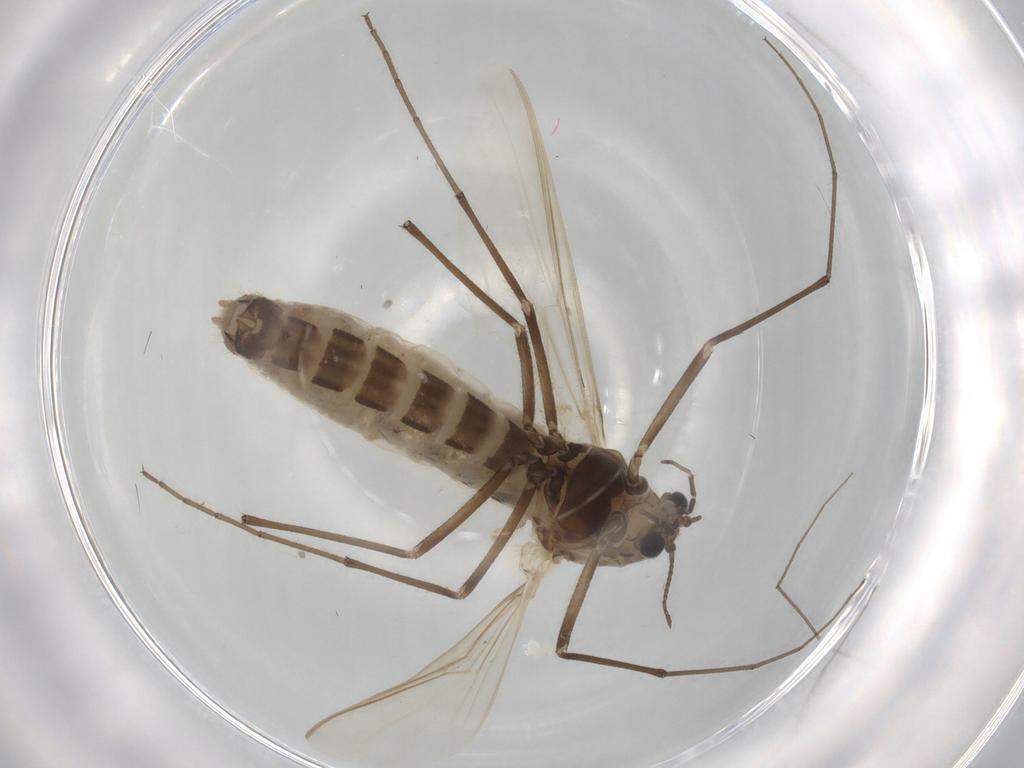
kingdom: Animalia
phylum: Arthropoda
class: Insecta
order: Diptera
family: Chironomidae
